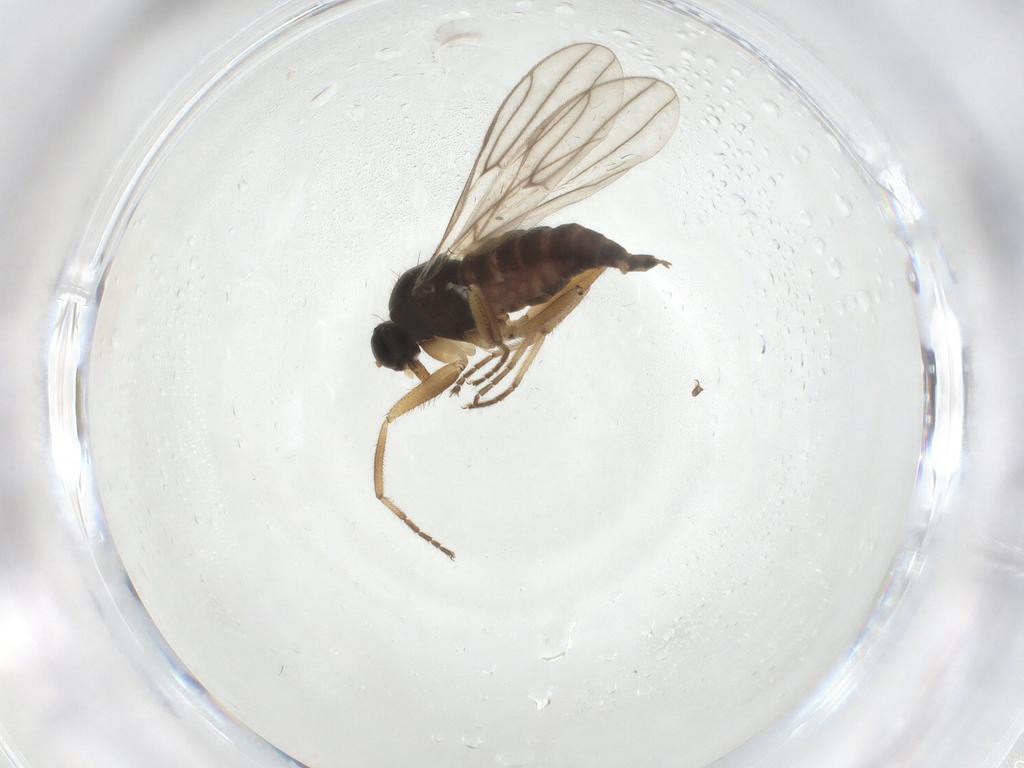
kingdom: Animalia
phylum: Arthropoda
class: Insecta
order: Diptera
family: Hybotidae
